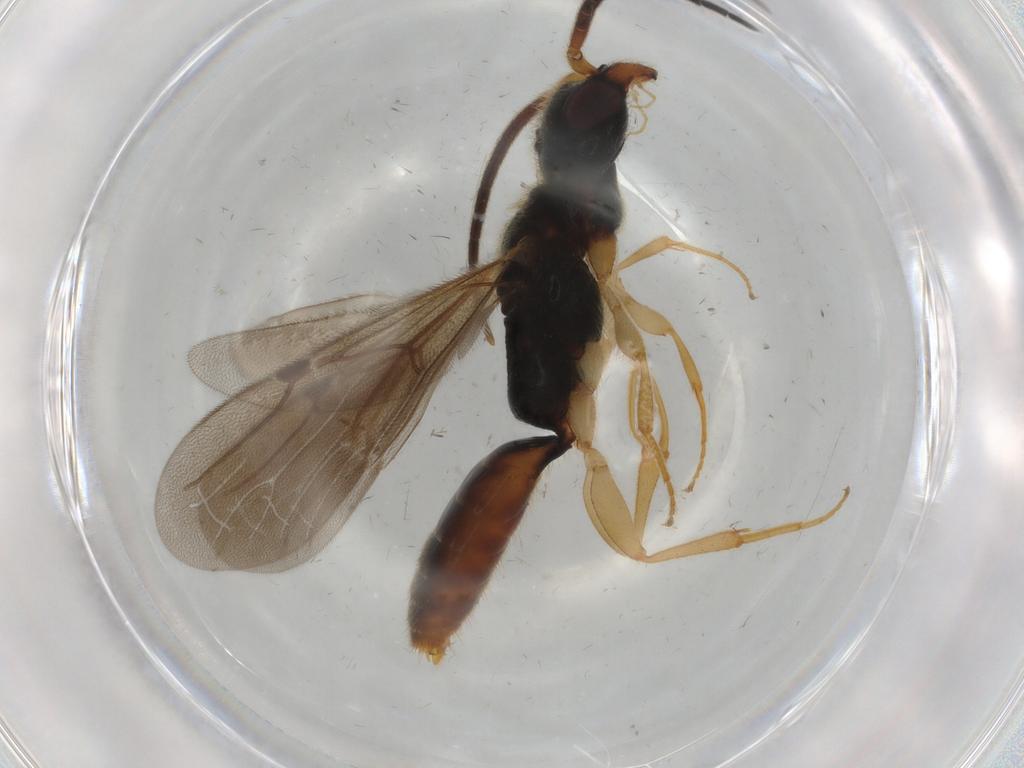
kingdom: Animalia
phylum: Arthropoda
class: Insecta
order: Hymenoptera
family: Bethylidae
